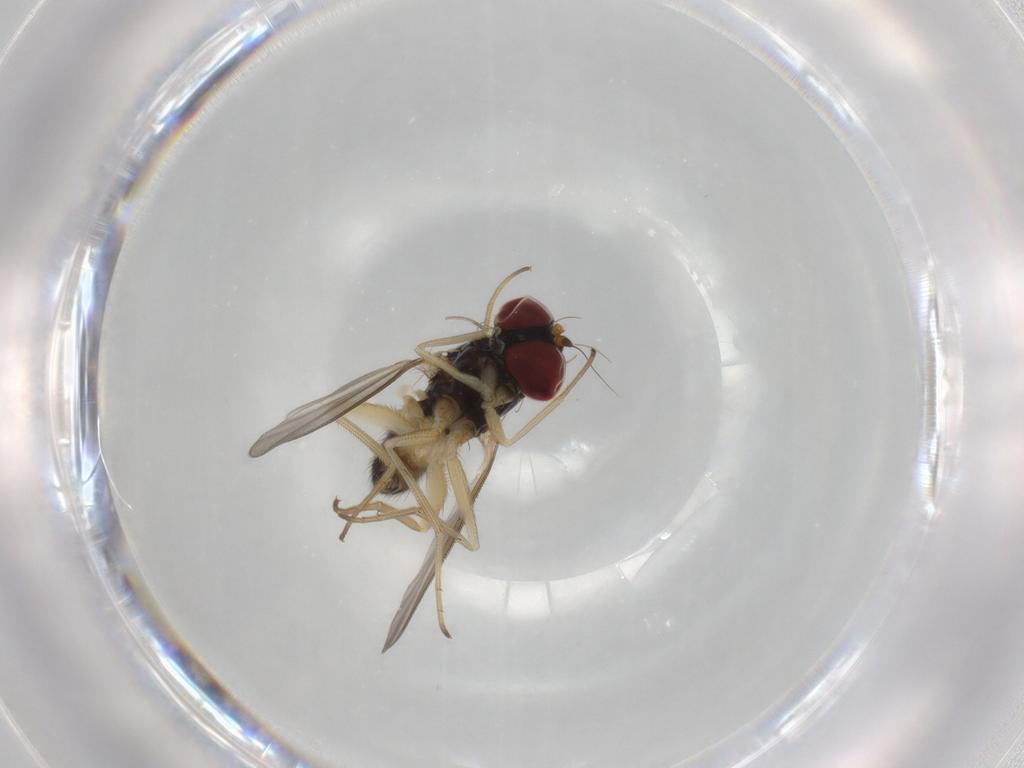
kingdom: Animalia
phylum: Arthropoda
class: Insecta
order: Diptera
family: Dolichopodidae
